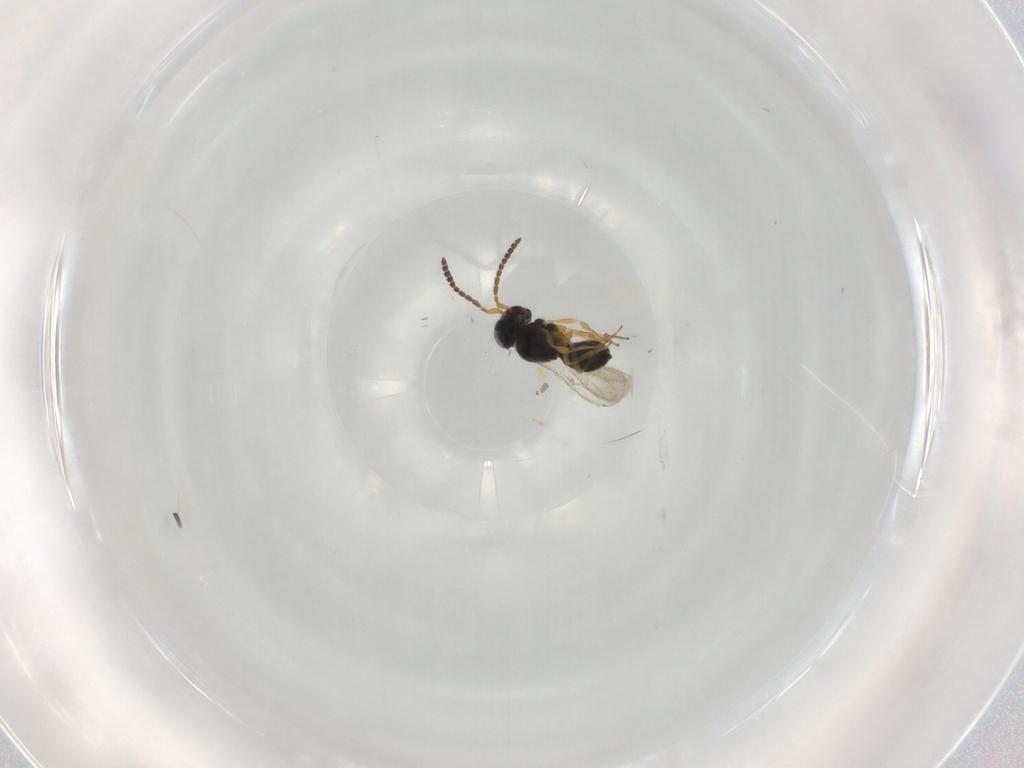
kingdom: Animalia
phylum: Arthropoda
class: Insecta
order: Hymenoptera
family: Scelionidae
